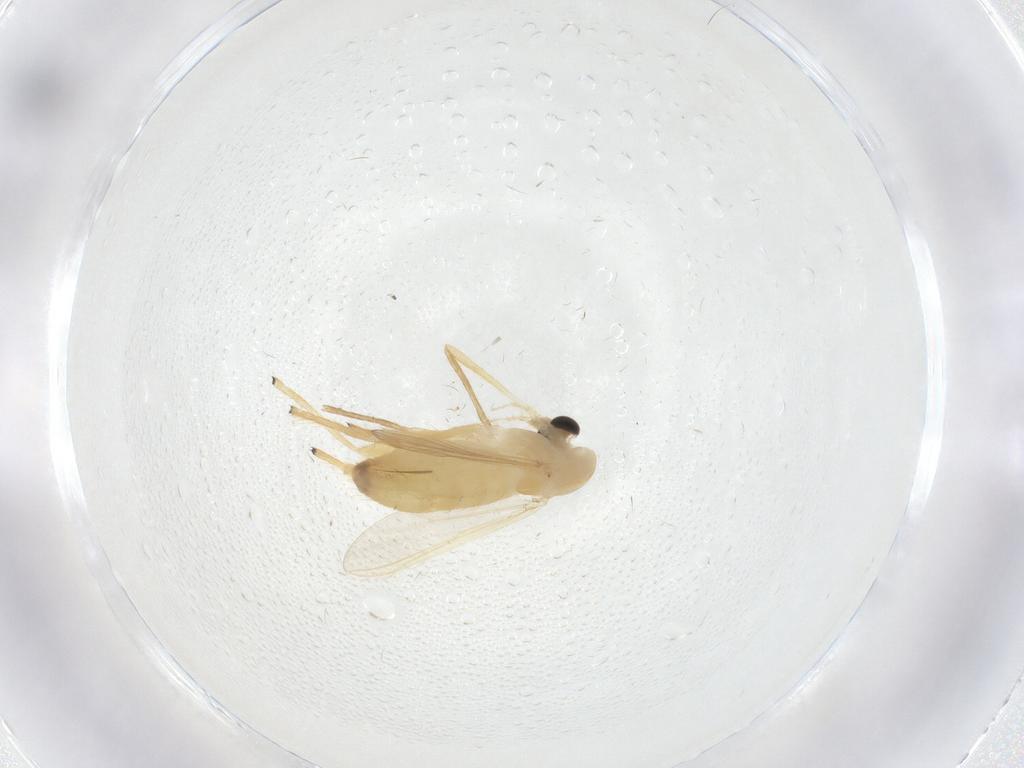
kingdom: Animalia
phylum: Arthropoda
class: Insecta
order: Diptera
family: Chironomidae
